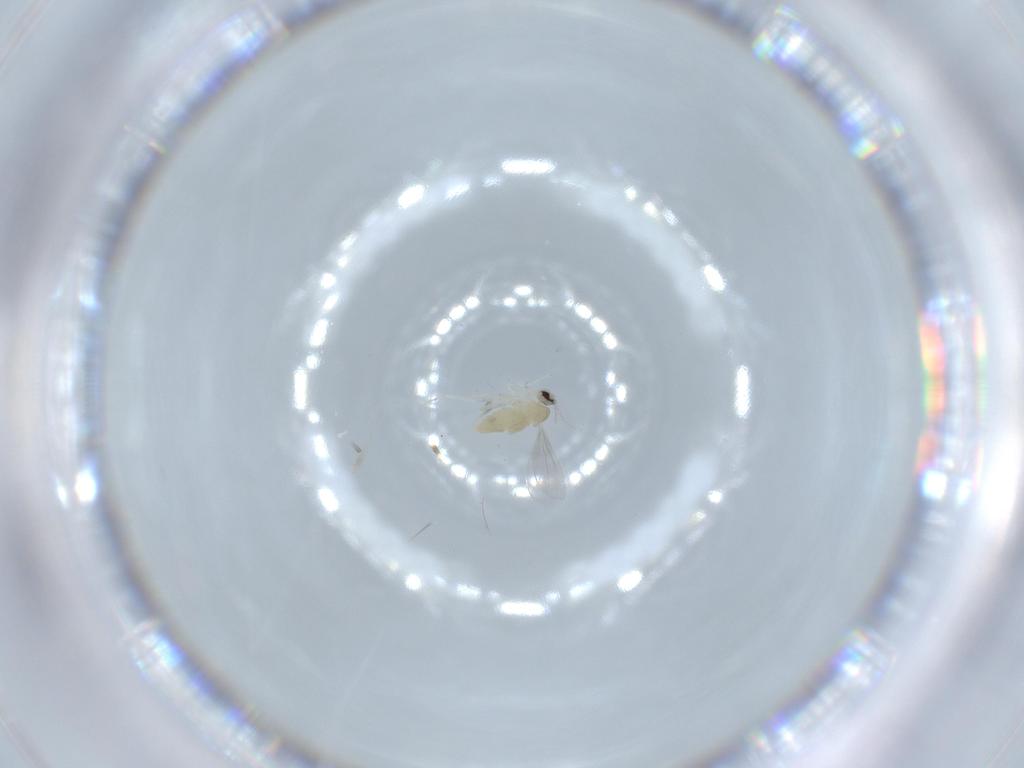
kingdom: Animalia
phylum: Arthropoda
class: Insecta
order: Diptera
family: Cecidomyiidae
